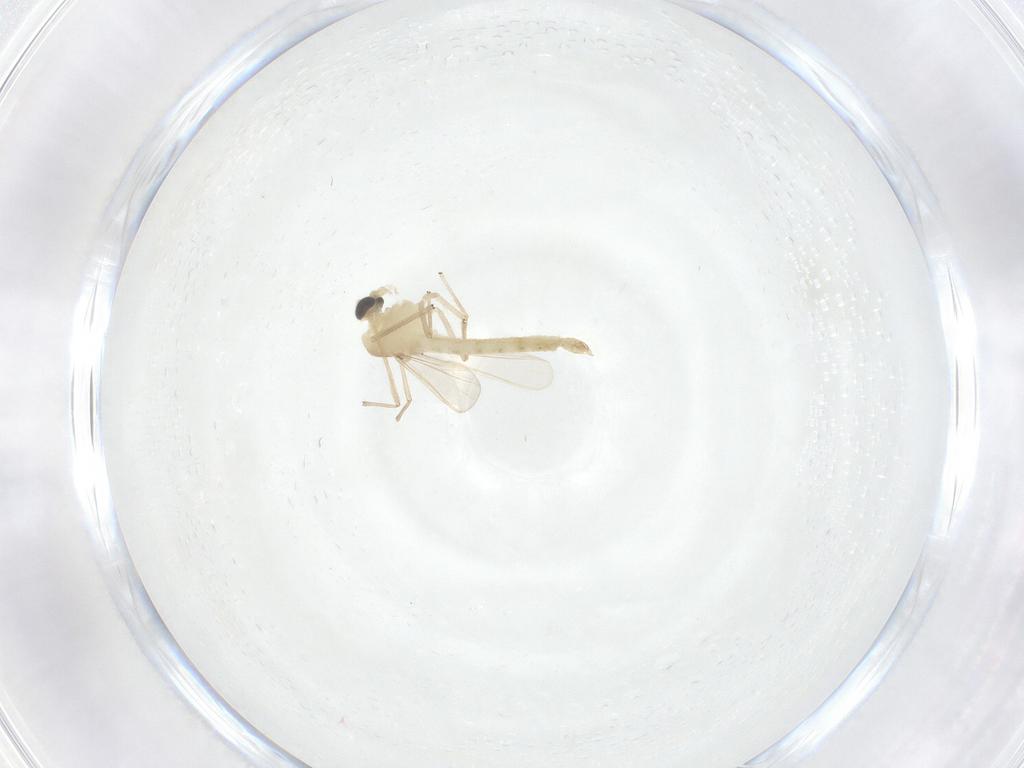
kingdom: Animalia
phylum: Arthropoda
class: Insecta
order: Diptera
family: Chironomidae
